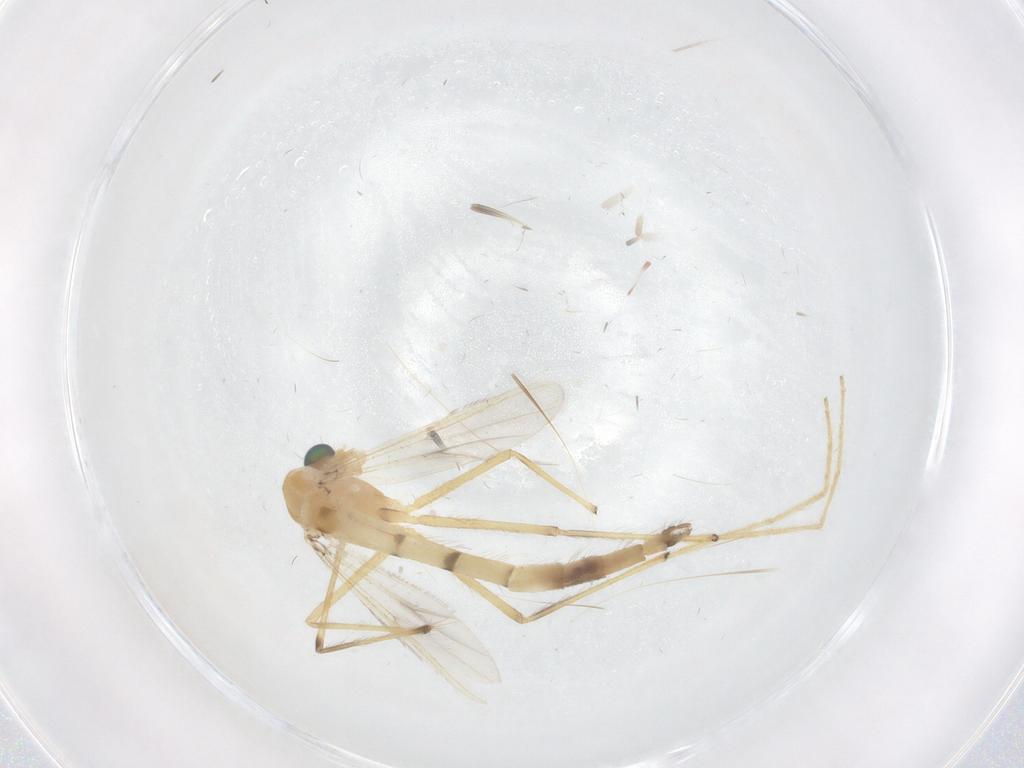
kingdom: Animalia
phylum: Arthropoda
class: Insecta
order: Diptera
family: Chironomidae
